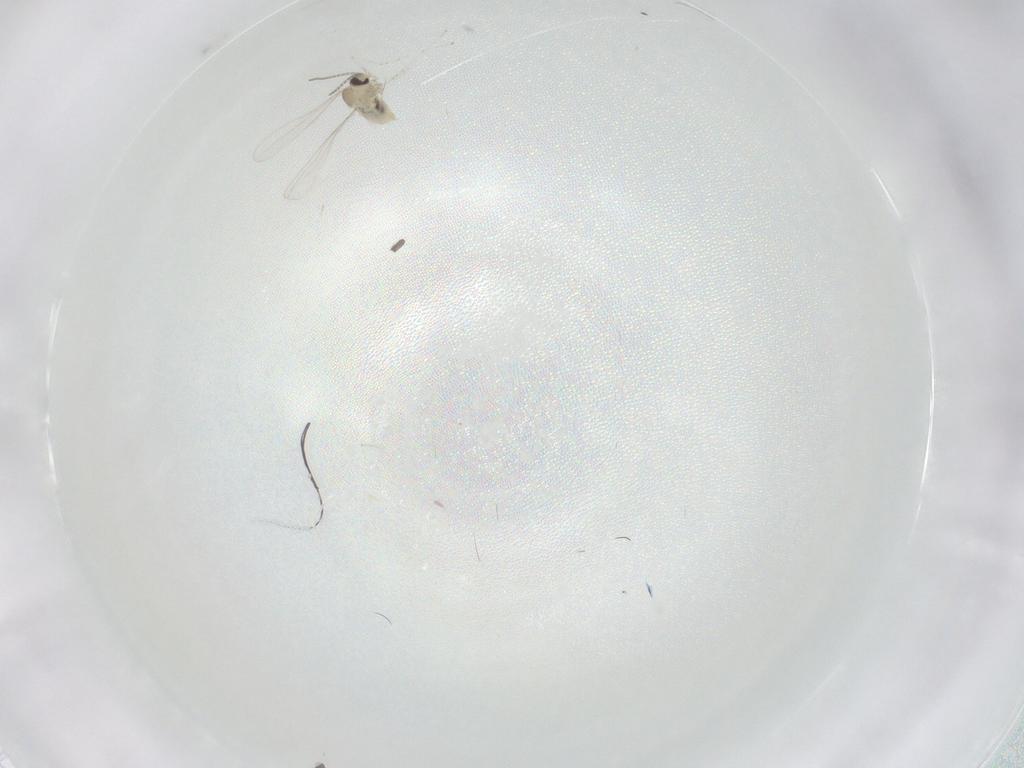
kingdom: Animalia
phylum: Arthropoda
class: Insecta
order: Diptera
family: Cecidomyiidae
